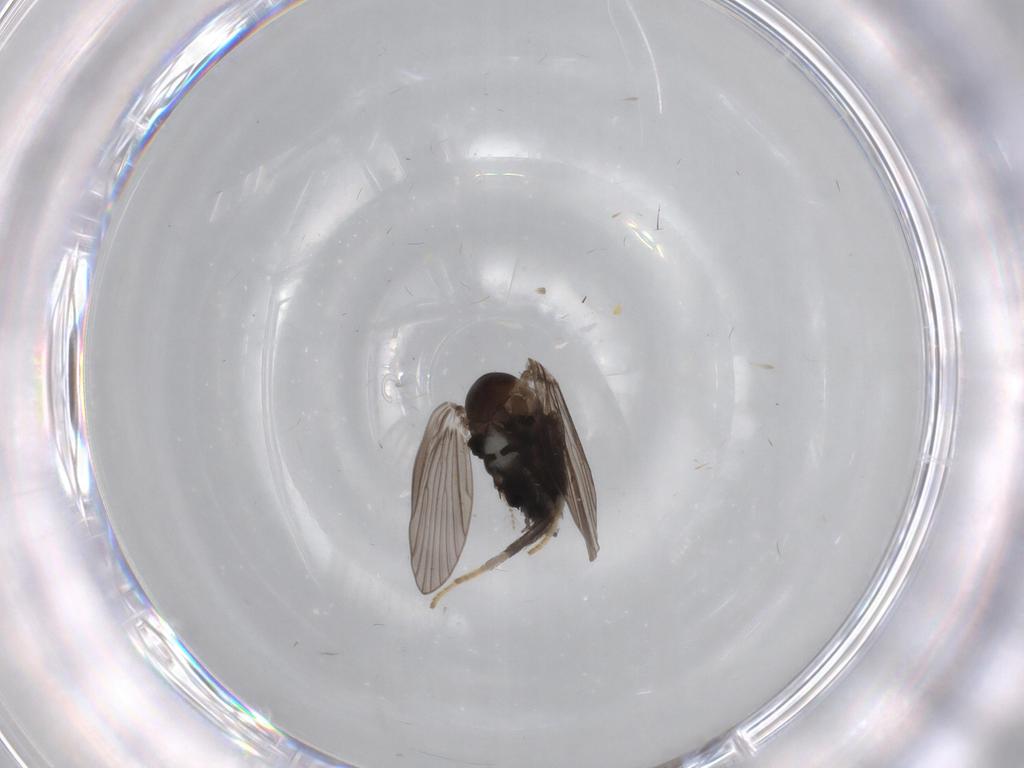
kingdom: Animalia
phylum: Arthropoda
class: Insecta
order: Diptera
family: Psychodidae
